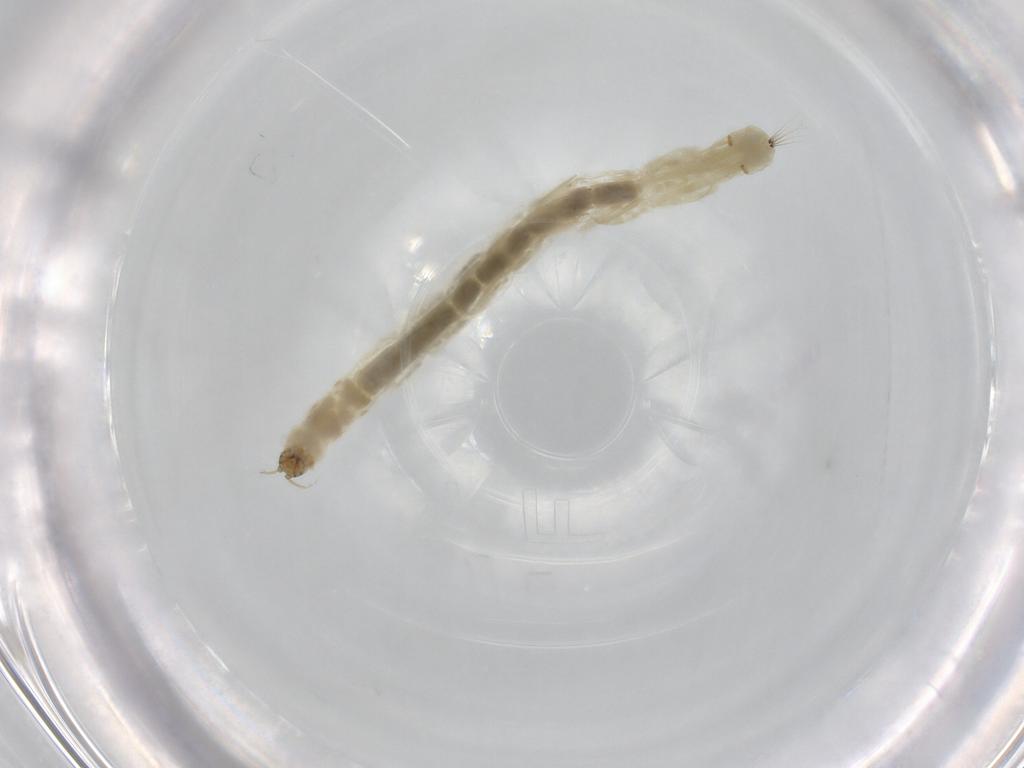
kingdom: Animalia
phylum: Arthropoda
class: Insecta
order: Diptera
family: Chironomidae
